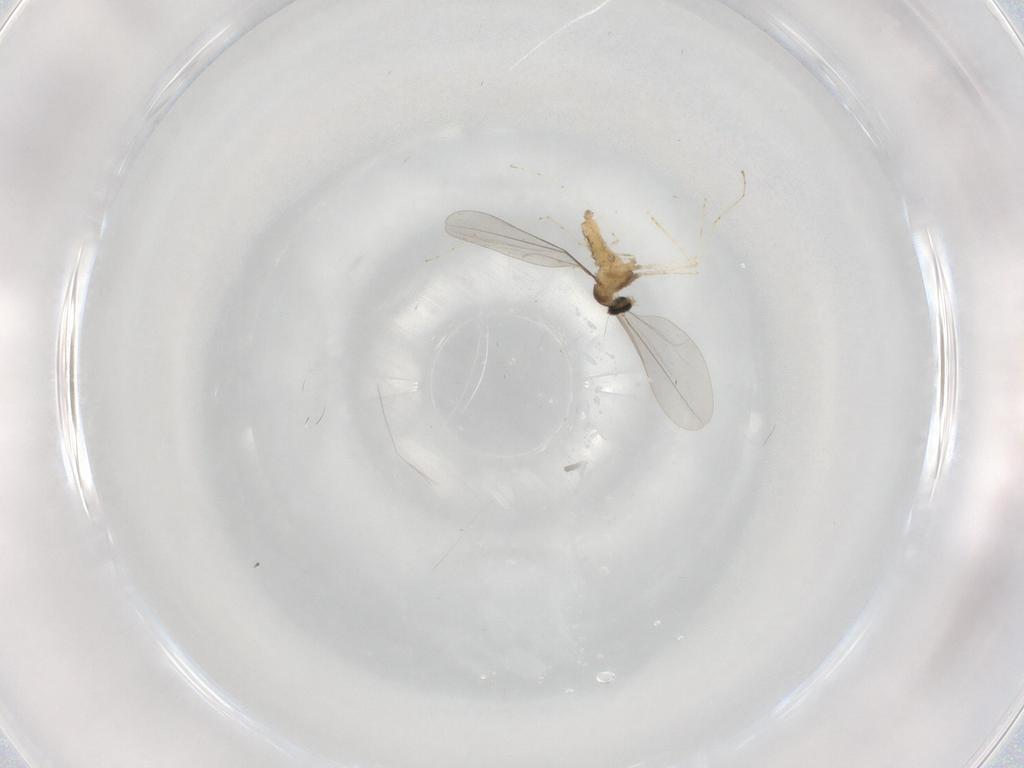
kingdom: Animalia
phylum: Arthropoda
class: Insecta
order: Diptera
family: Cecidomyiidae
